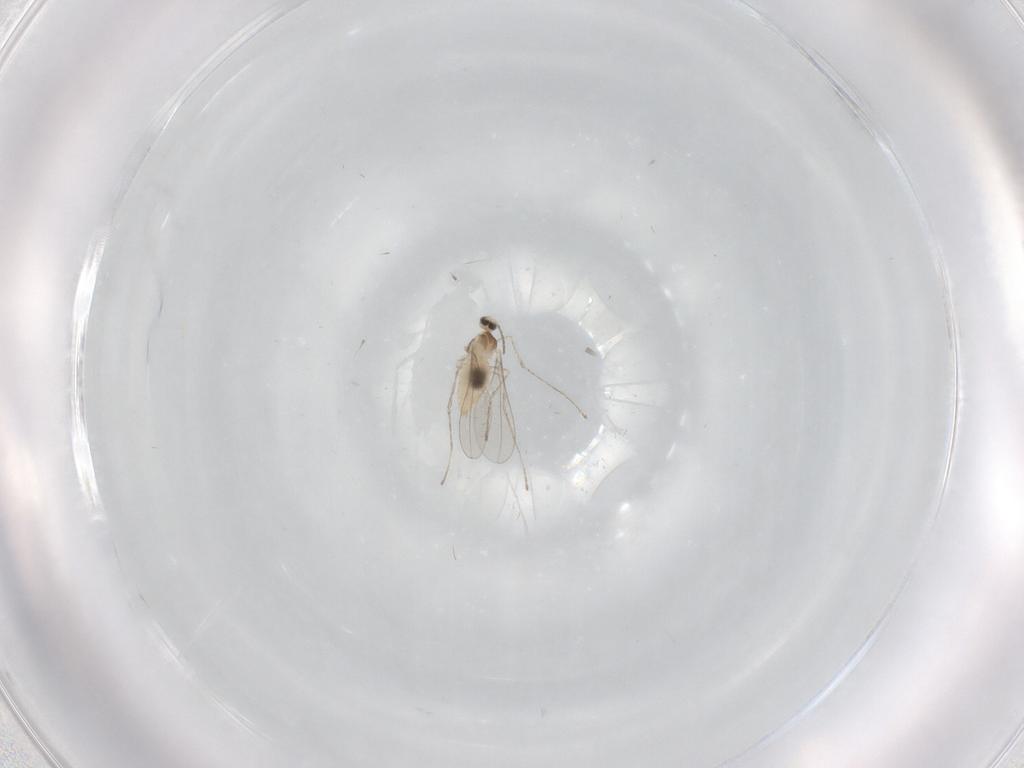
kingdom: Animalia
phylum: Arthropoda
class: Insecta
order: Diptera
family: Cecidomyiidae
